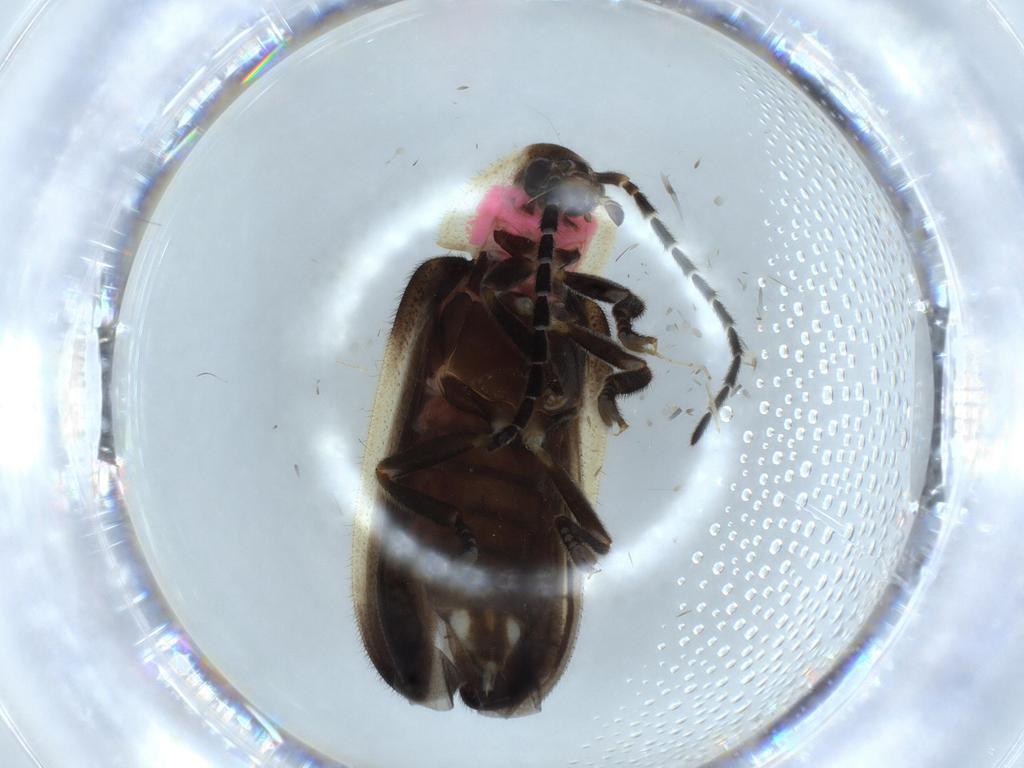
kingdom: Animalia
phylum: Arthropoda
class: Insecta
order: Coleoptera
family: Lampyridae
